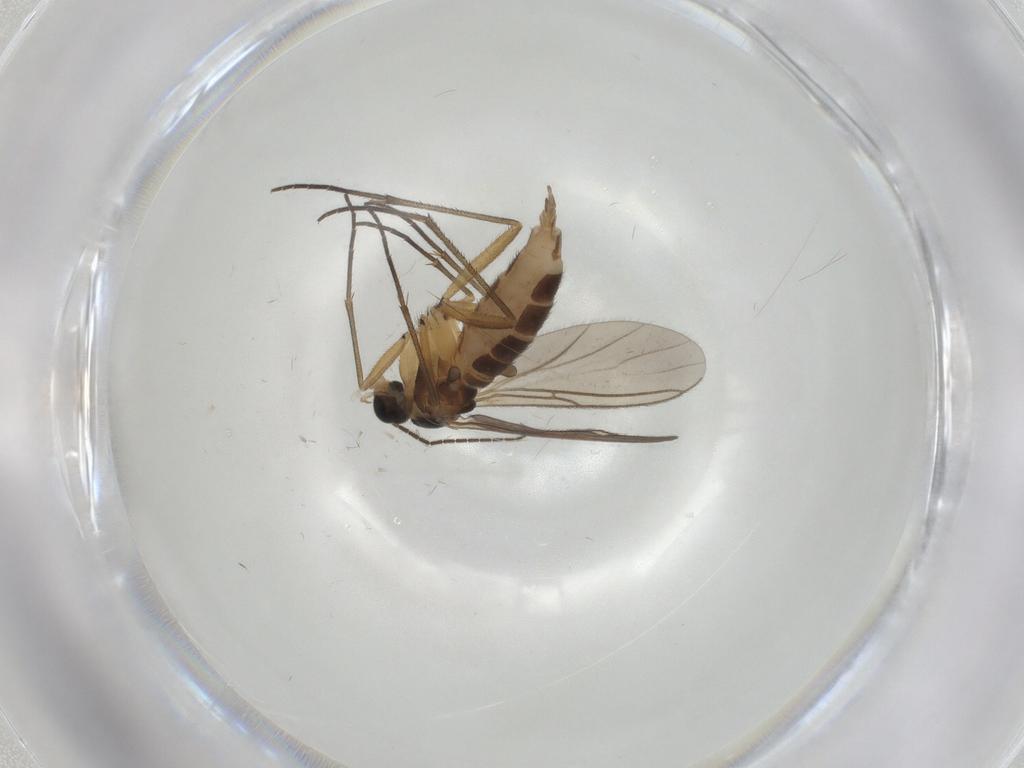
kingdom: Animalia
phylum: Arthropoda
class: Insecta
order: Diptera
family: Sciaridae
